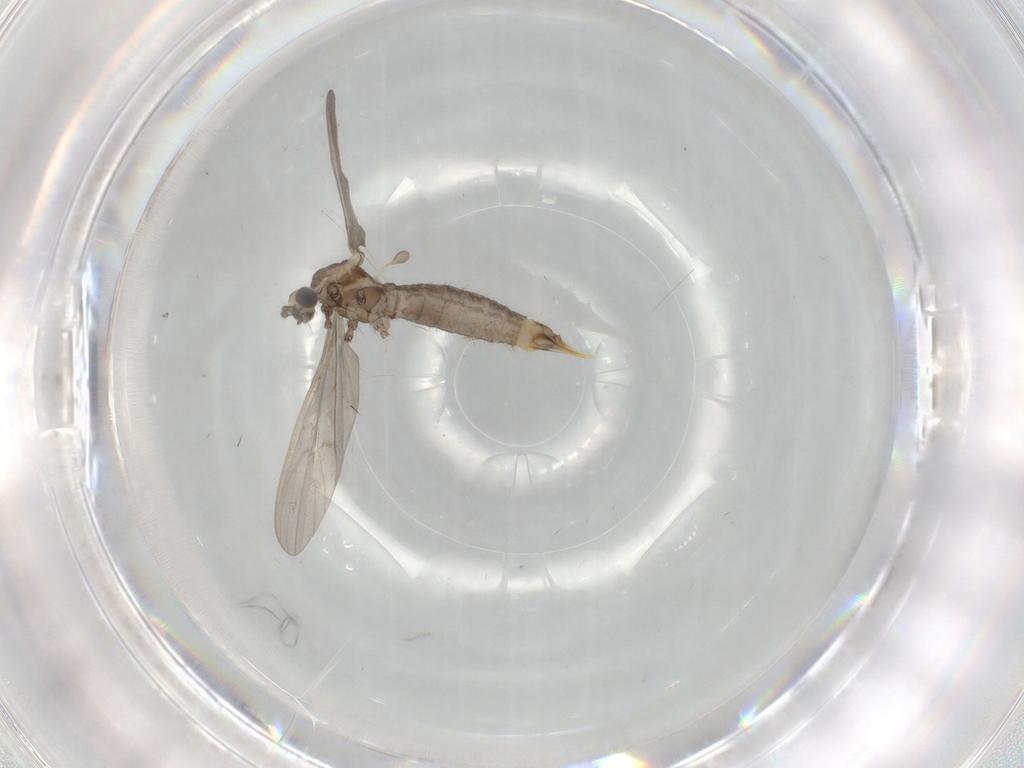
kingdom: Animalia
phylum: Arthropoda
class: Insecta
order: Diptera
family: Limoniidae
